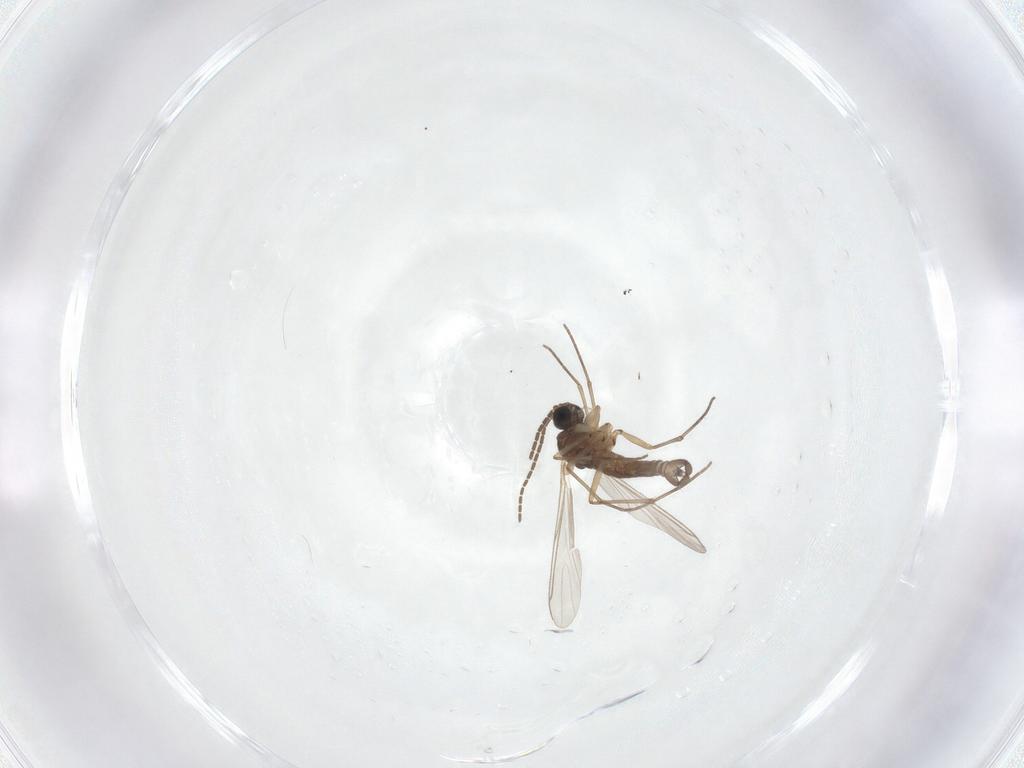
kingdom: Animalia
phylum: Arthropoda
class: Insecta
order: Diptera
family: Sciaridae
